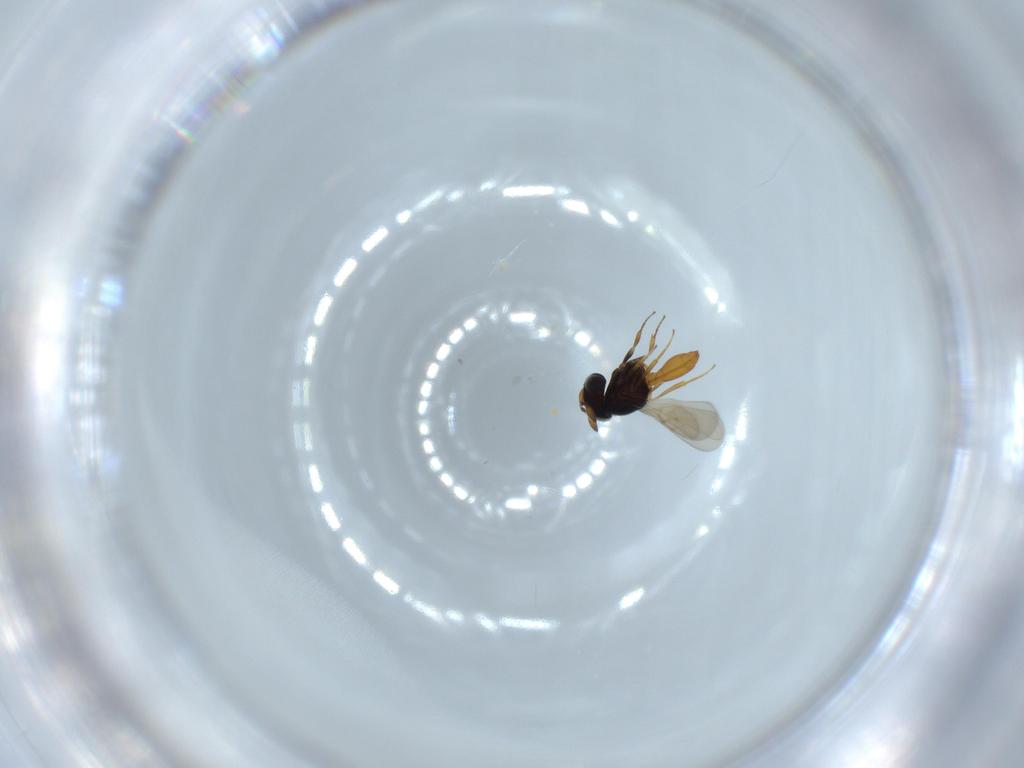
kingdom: Animalia
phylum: Arthropoda
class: Insecta
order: Hymenoptera
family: Scelionidae
